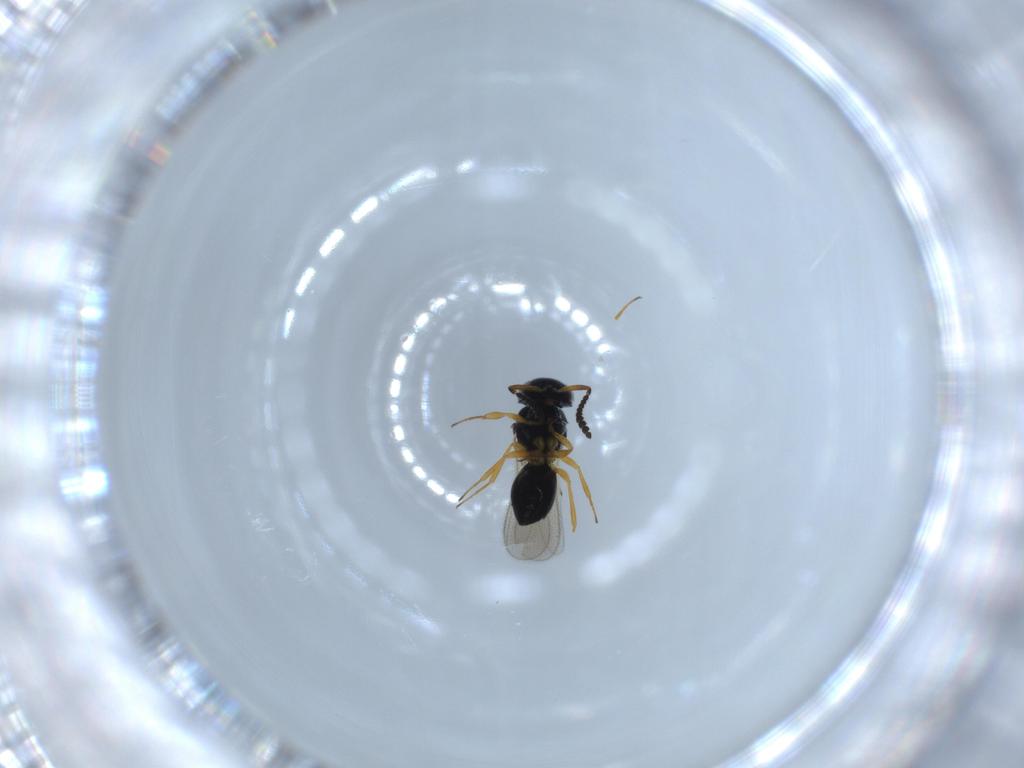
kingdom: Animalia
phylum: Arthropoda
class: Insecta
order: Hymenoptera
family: Scelionidae
